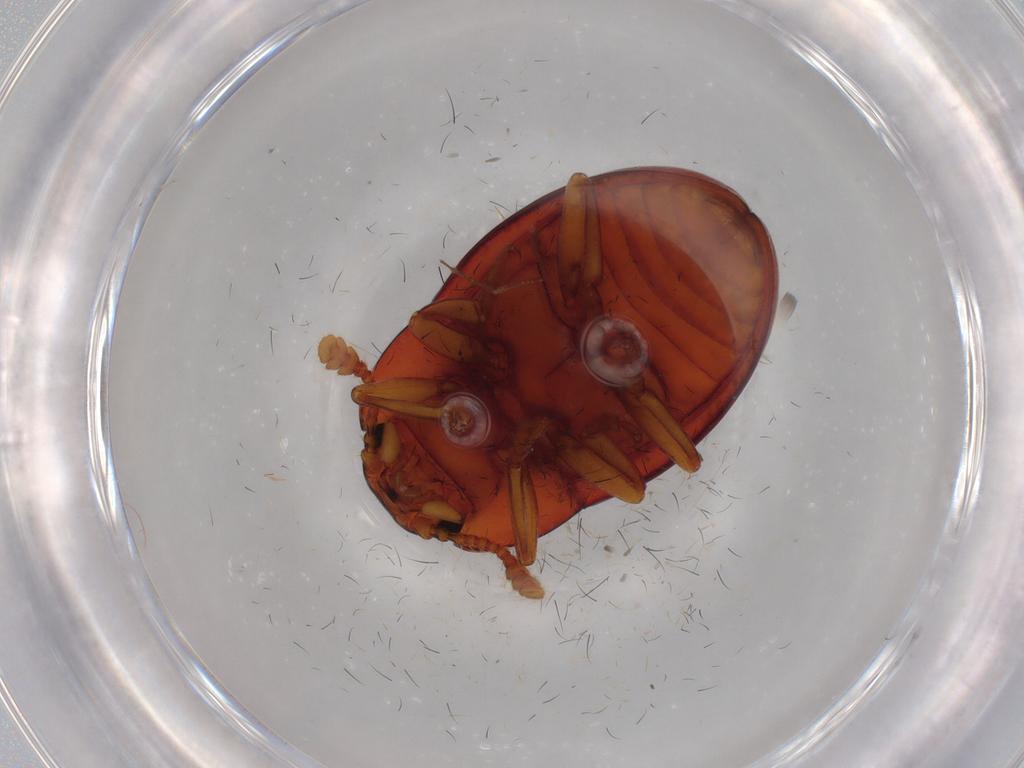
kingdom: Animalia
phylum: Arthropoda
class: Insecta
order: Coleoptera
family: Erotylidae
